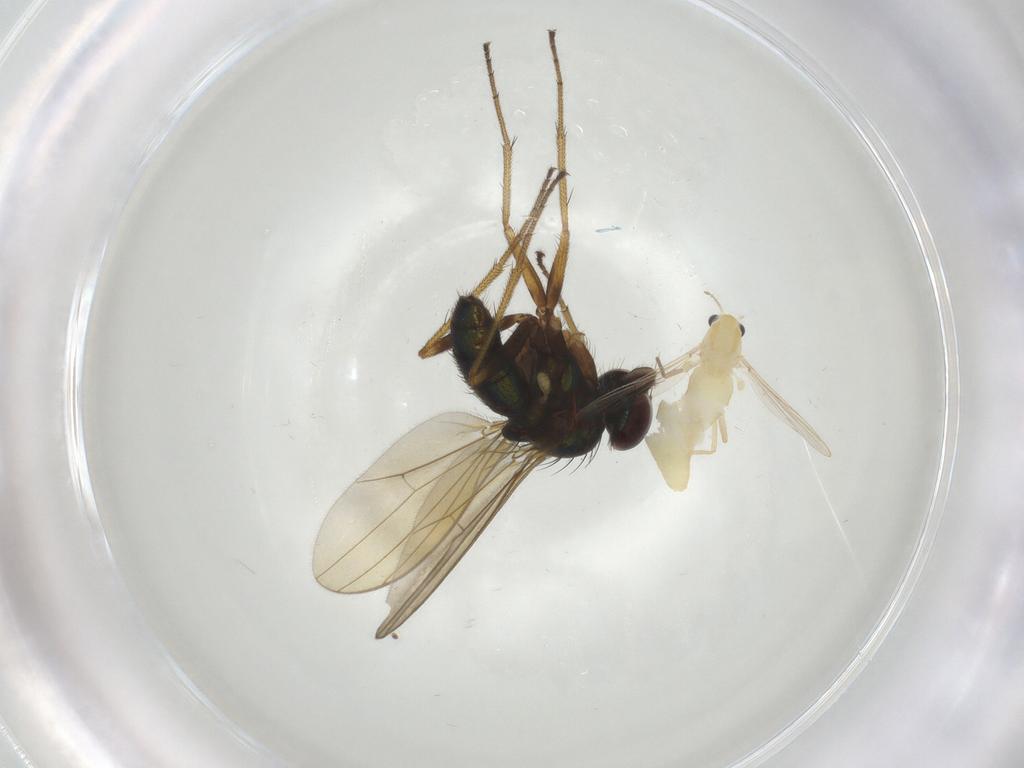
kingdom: Animalia
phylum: Arthropoda
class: Insecta
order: Diptera
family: Chironomidae
